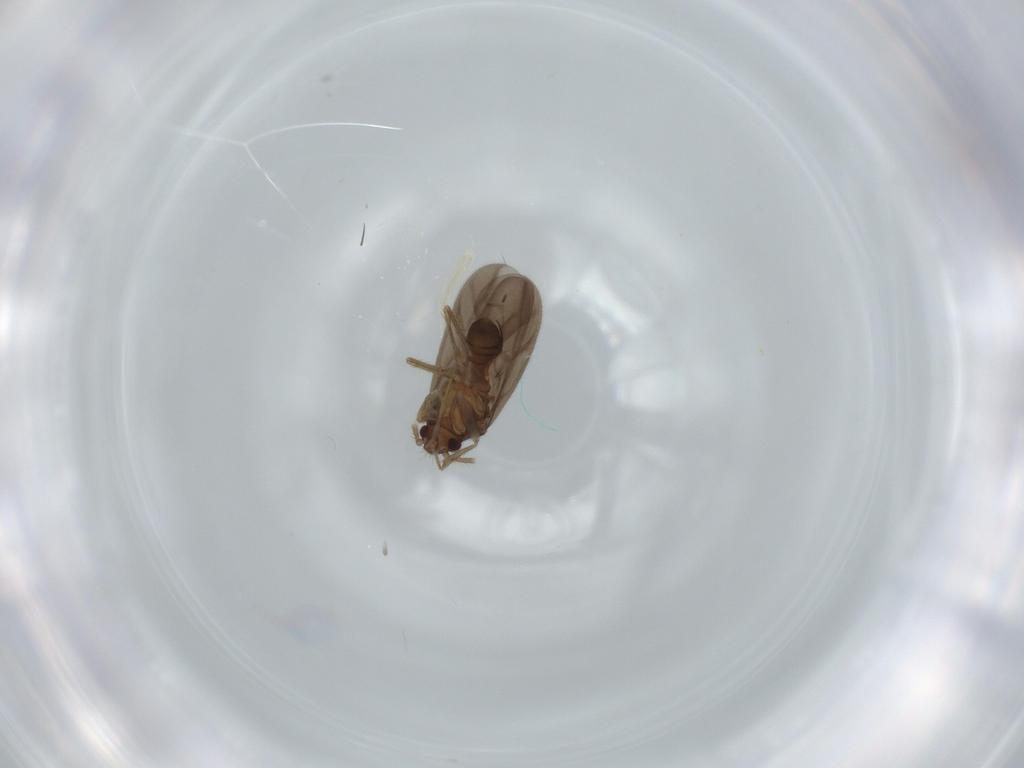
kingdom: Animalia
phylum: Arthropoda
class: Insecta
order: Hemiptera
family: Ceratocombidae
